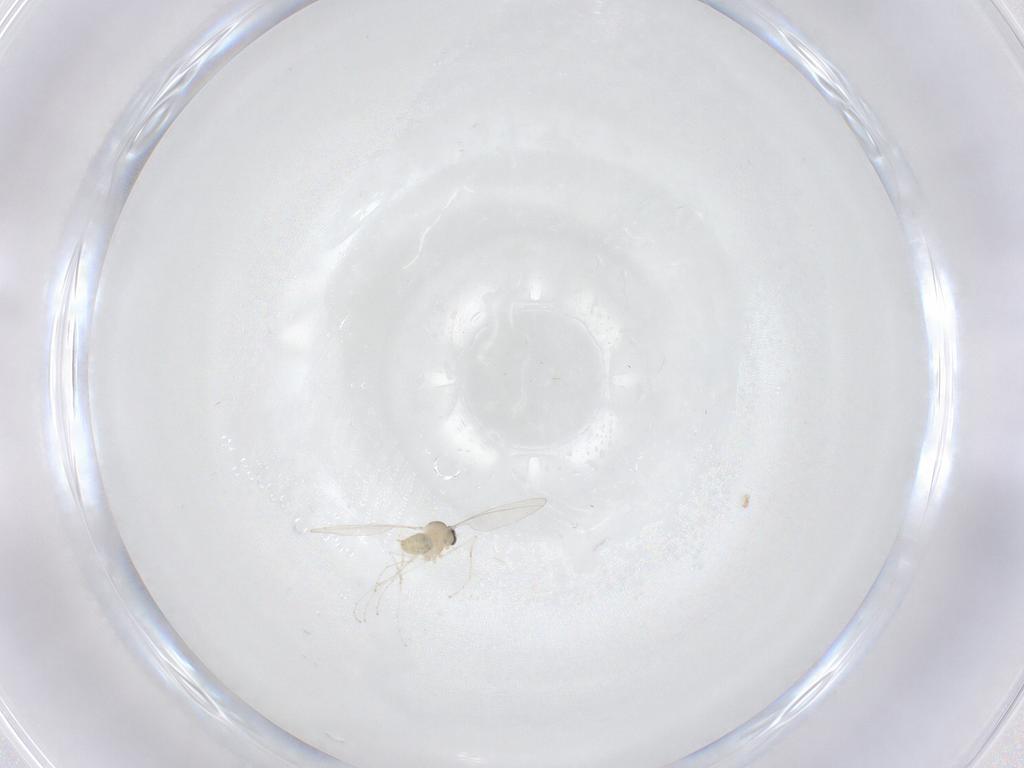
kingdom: Animalia
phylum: Arthropoda
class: Insecta
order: Diptera
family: Cecidomyiidae
